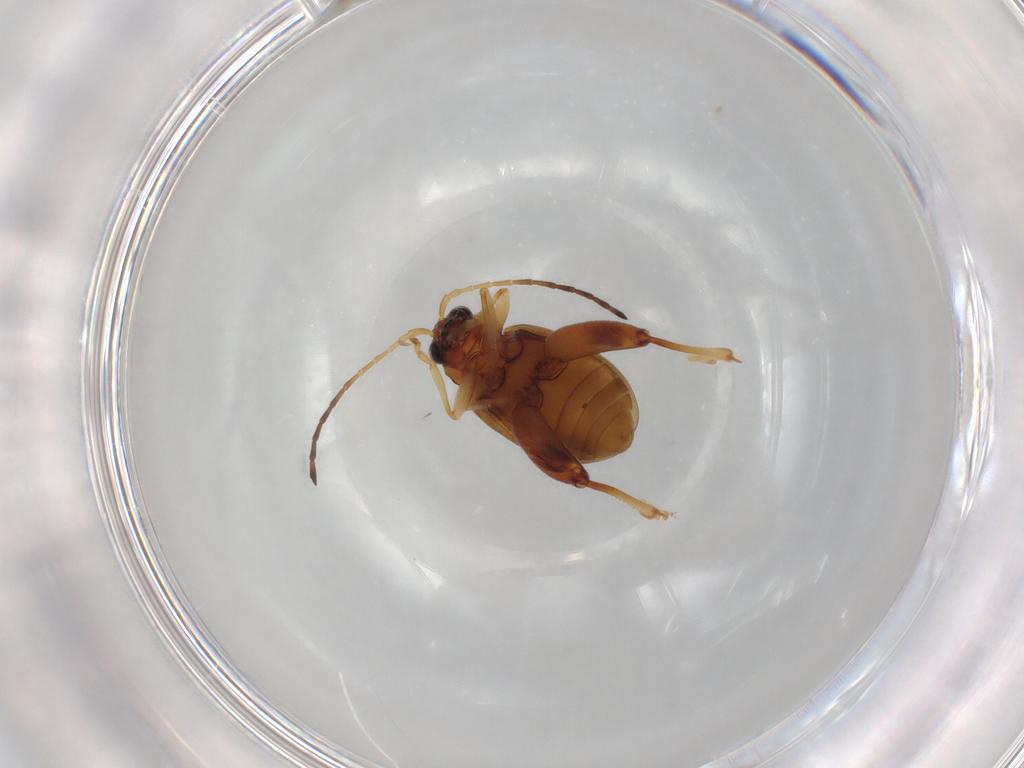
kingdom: Animalia
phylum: Arthropoda
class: Insecta
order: Coleoptera
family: Chrysomelidae
